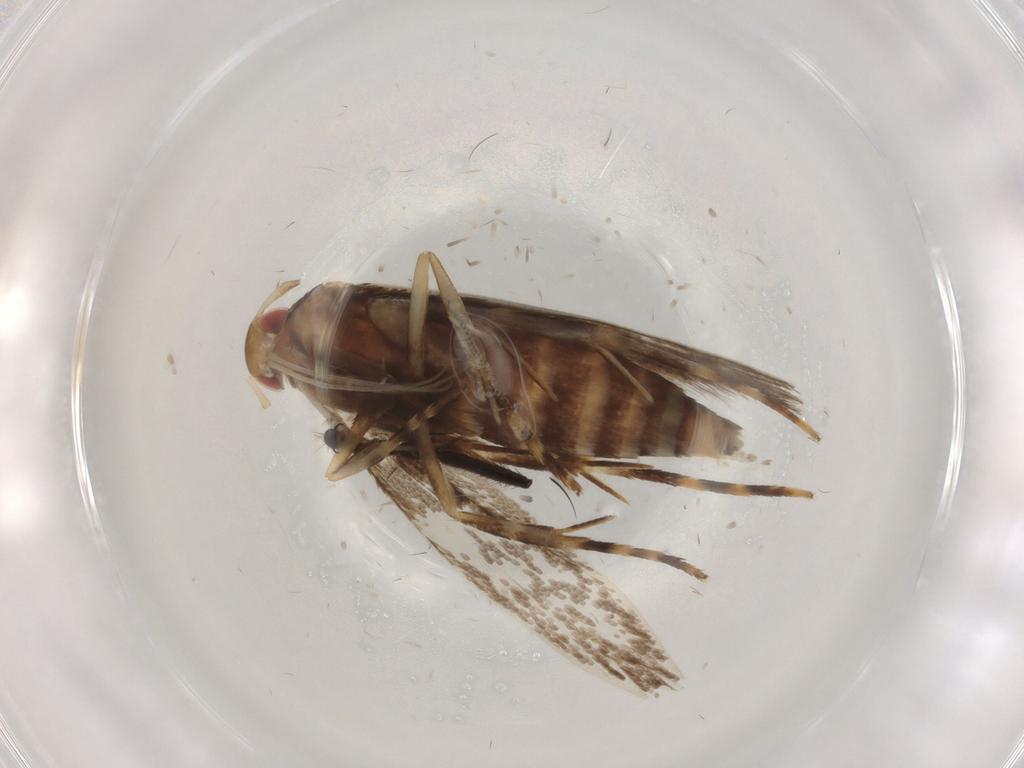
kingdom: Animalia
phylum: Arthropoda
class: Insecta
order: Lepidoptera
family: Cosmopterigidae
